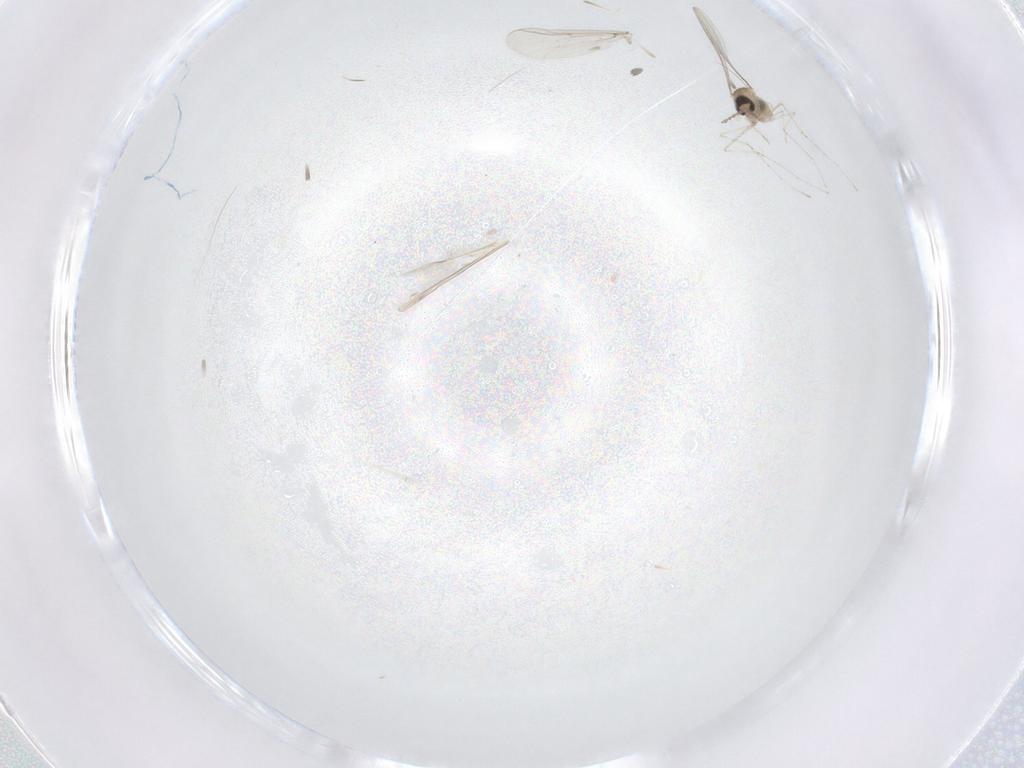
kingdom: Animalia
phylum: Arthropoda
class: Insecta
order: Diptera
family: Cecidomyiidae
